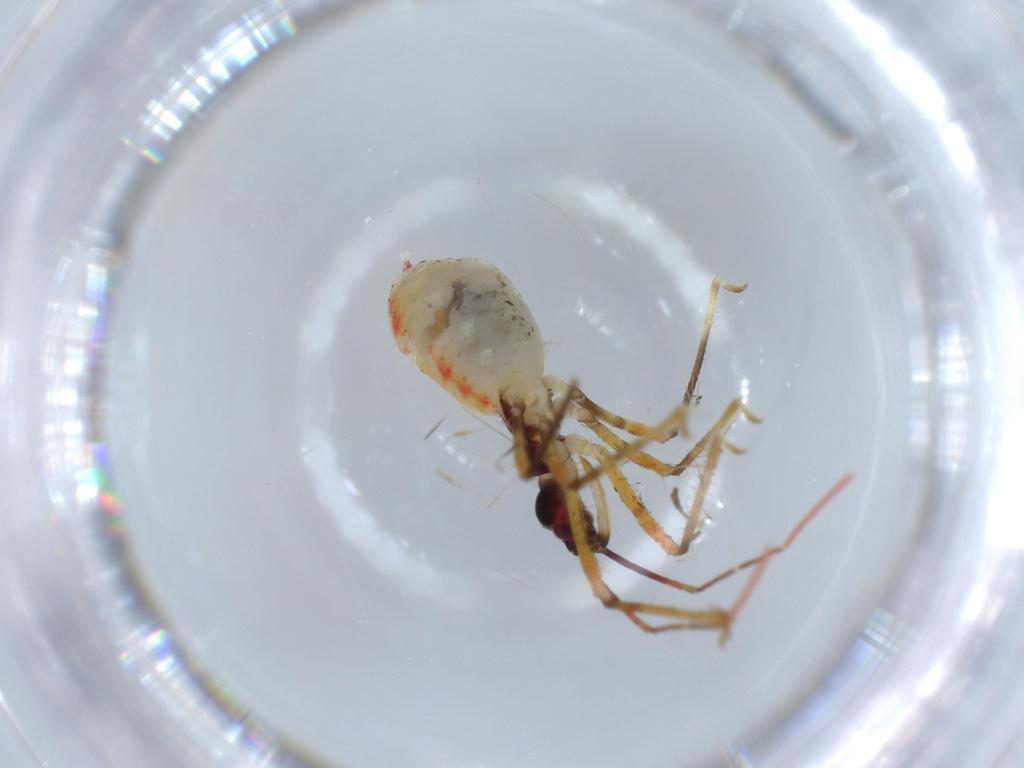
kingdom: Animalia
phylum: Arthropoda
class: Insecta
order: Hemiptera
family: Reduviidae
